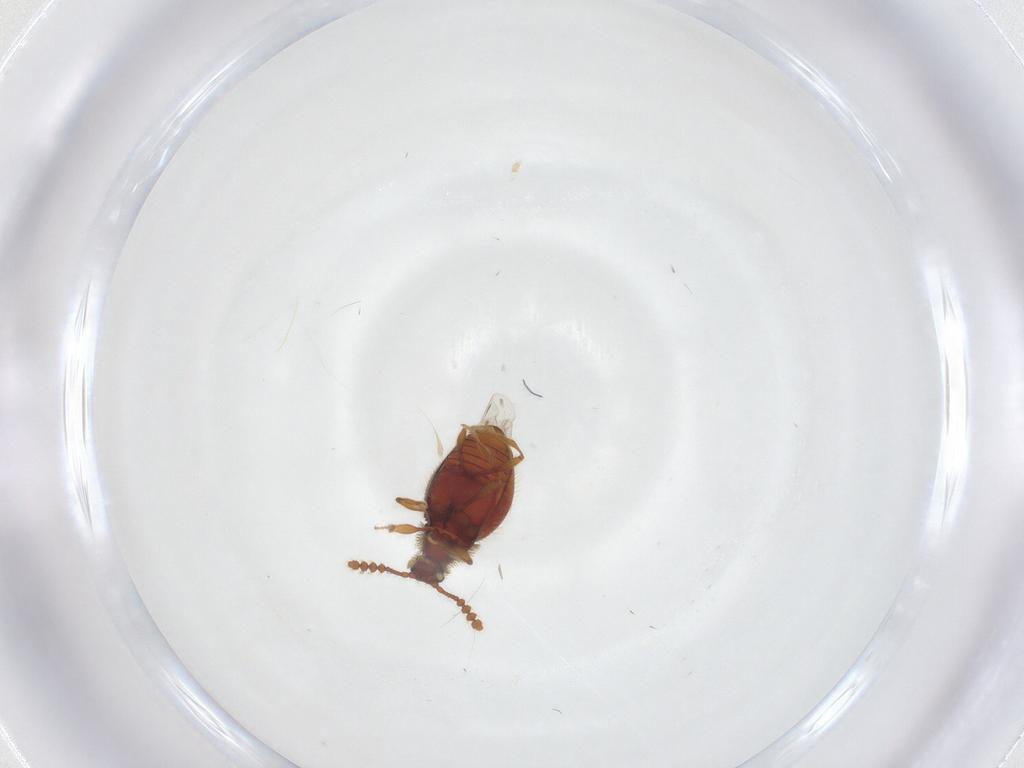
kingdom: Animalia
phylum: Arthropoda
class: Insecta
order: Coleoptera
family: Staphylinidae
